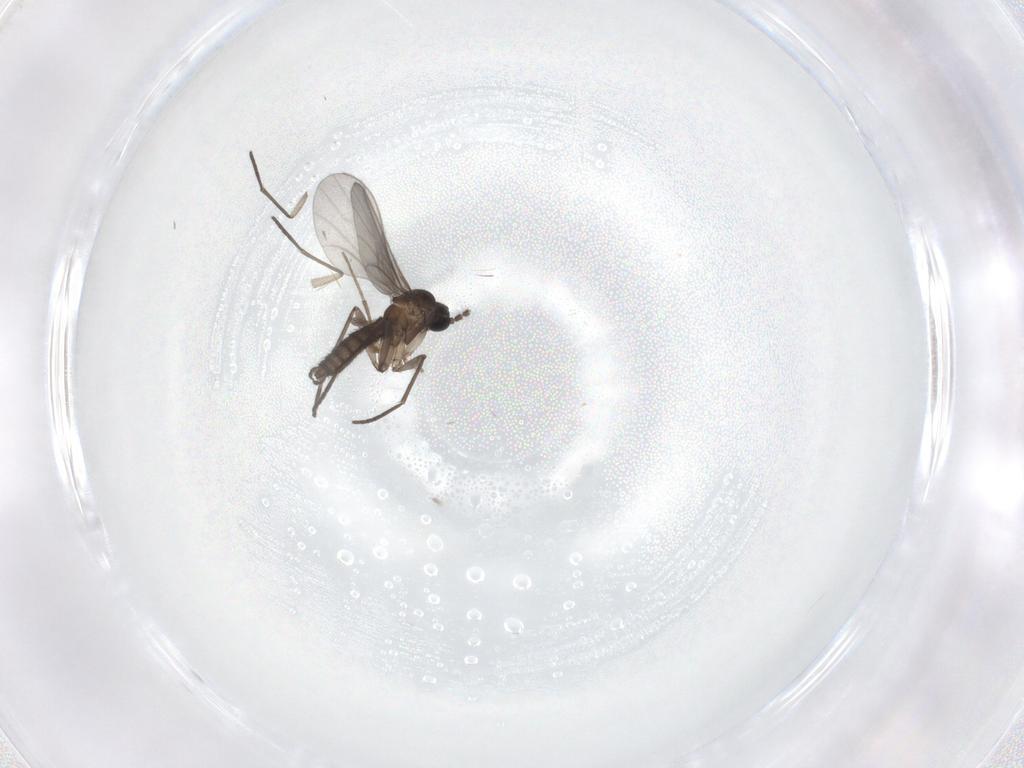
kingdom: Animalia
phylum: Arthropoda
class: Insecta
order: Diptera
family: Chironomidae
